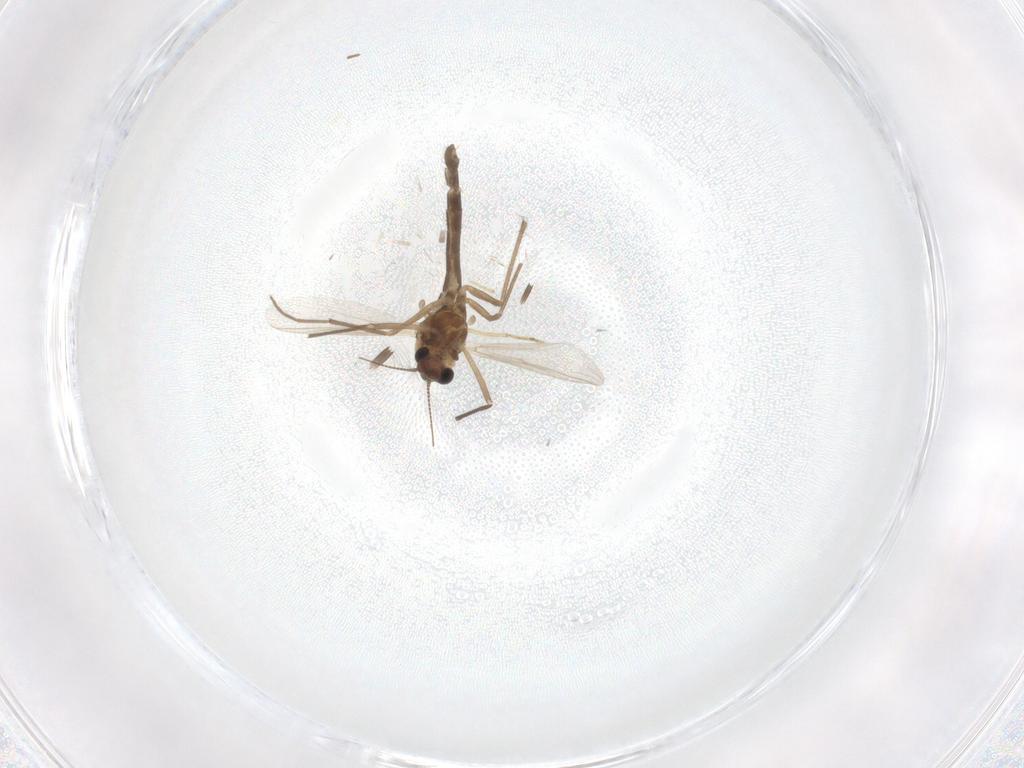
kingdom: Animalia
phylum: Arthropoda
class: Insecta
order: Diptera
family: Chironomidae
